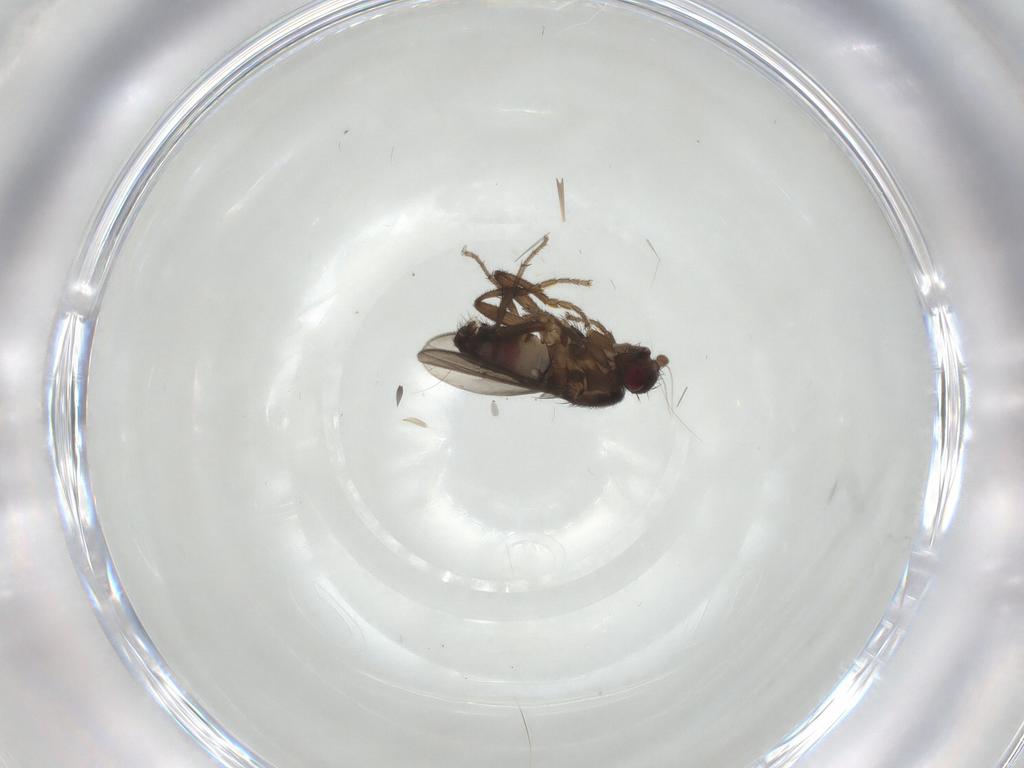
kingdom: Animalia
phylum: Arthropoda
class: Insecta
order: Diptera
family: Sphaeroceridae
